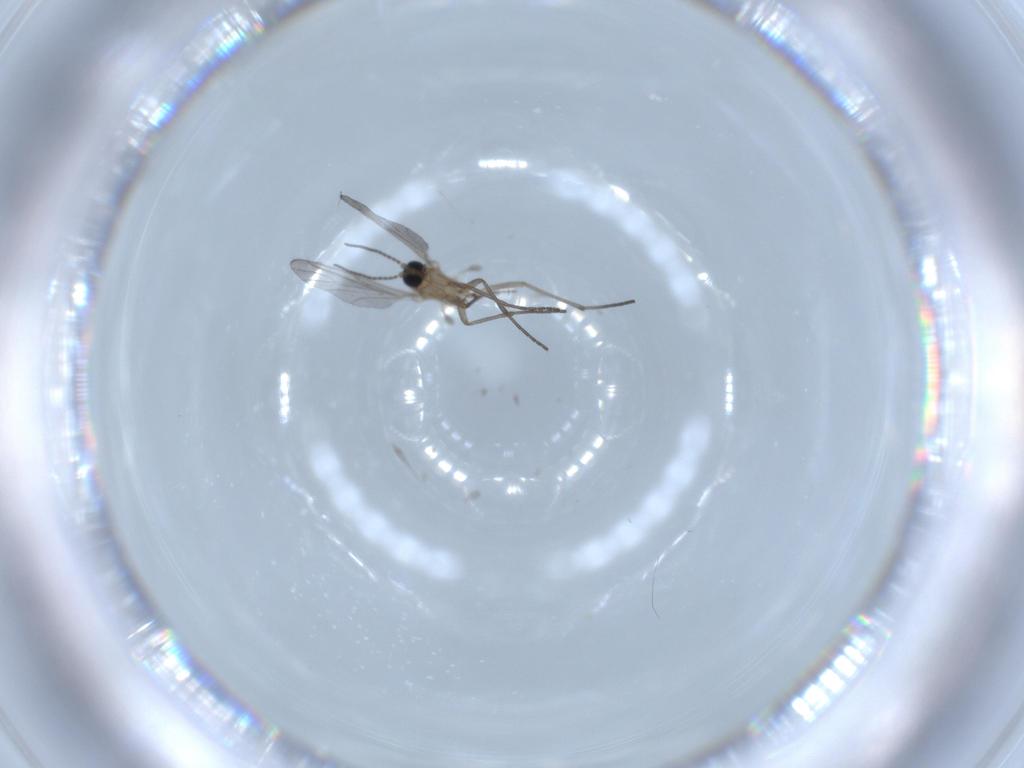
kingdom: Animalia
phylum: Arthropoda
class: Insecta
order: Diptera
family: Sciaridae
